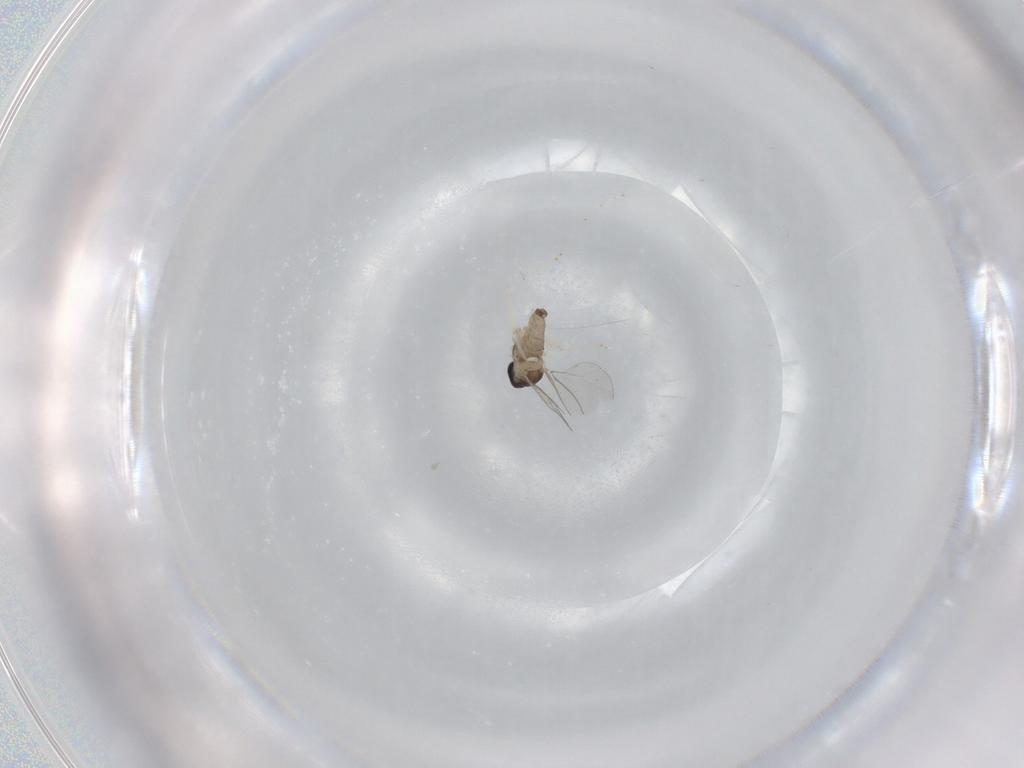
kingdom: Animalia
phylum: Arthropoda
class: Insecta
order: Diptera
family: Cecidomyiidae
